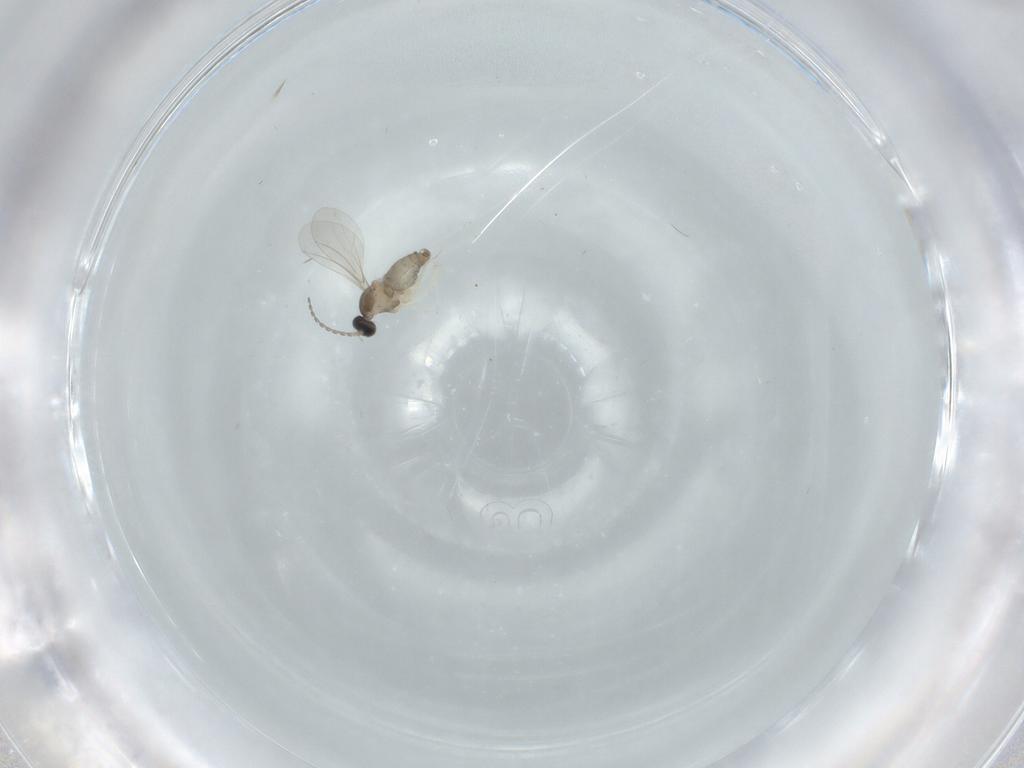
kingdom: Animalia
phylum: Arthropoda
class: Insecta
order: Diptera
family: Cecidomyiidae
